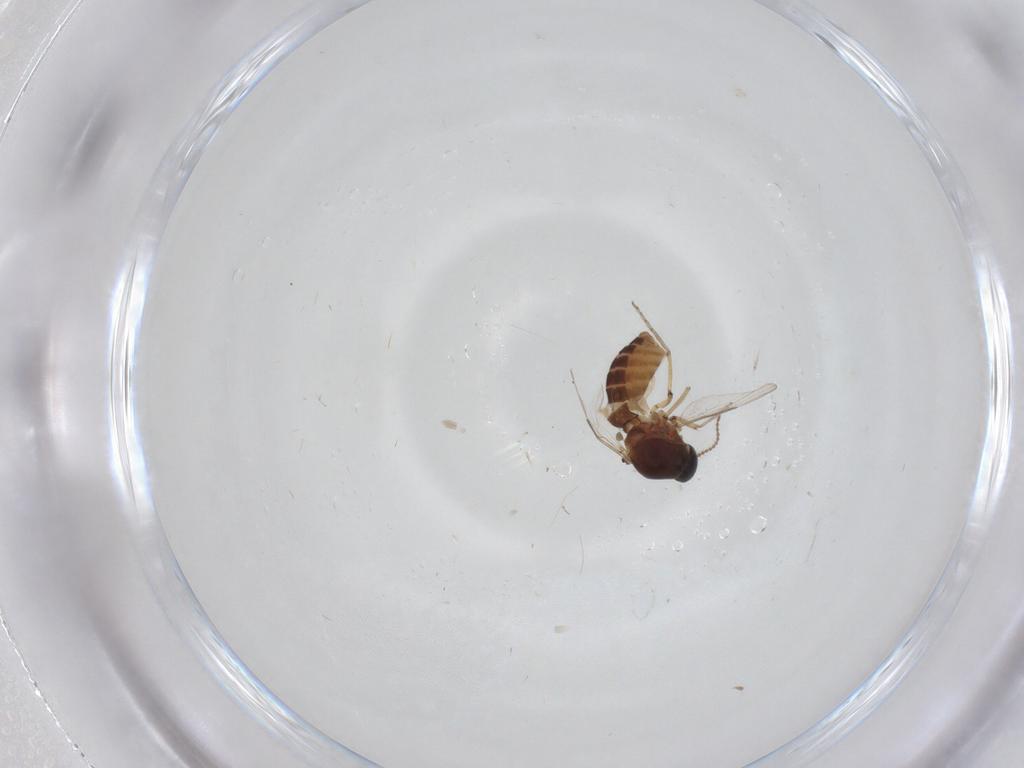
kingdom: Animalia
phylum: Arthropoda
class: Insecta
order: Diptera
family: Ceratopogonidae
